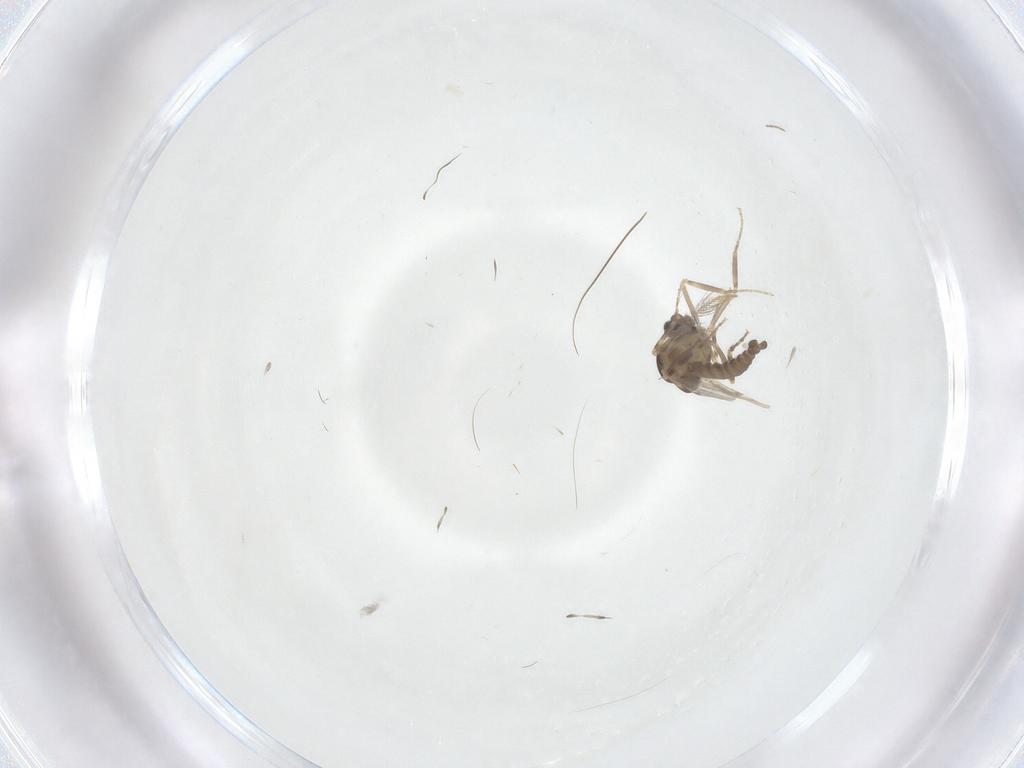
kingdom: Animalia
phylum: Arthropoda
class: Insecta
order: Diptera
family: Ceratopogonidae
